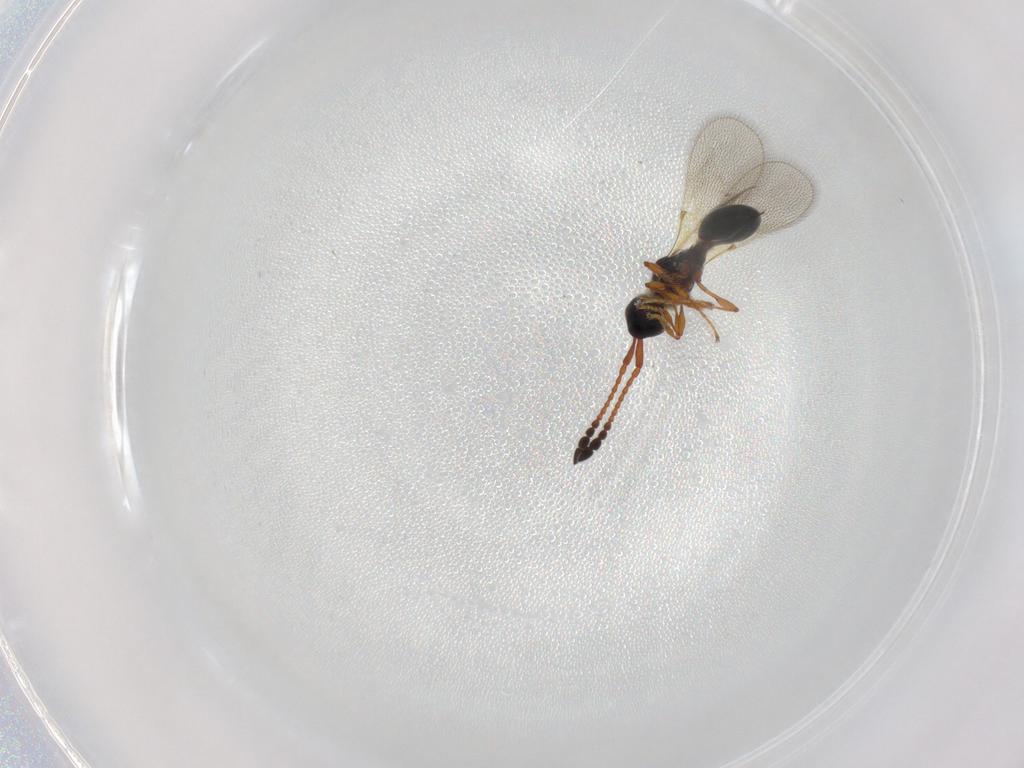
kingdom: Animalia
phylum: Arthropoda
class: Insecta
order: Hymenoptera
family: Diapriidae
